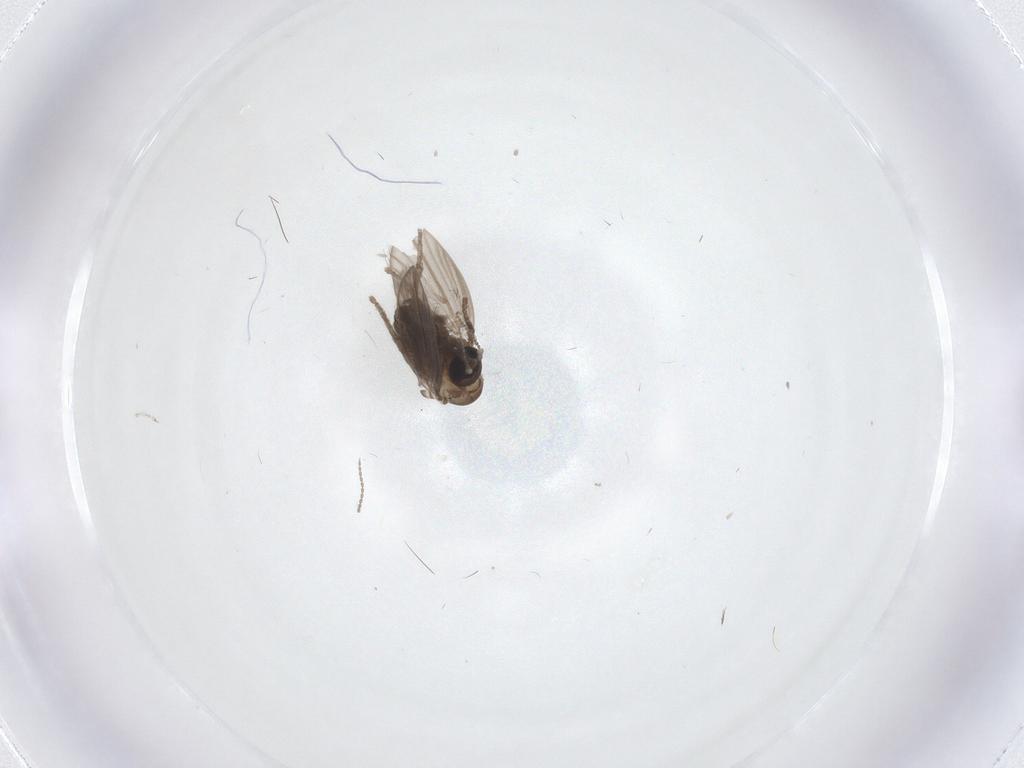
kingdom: Animalia
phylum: Arthropoda
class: Insecta
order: Diptera
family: Psychodidae
